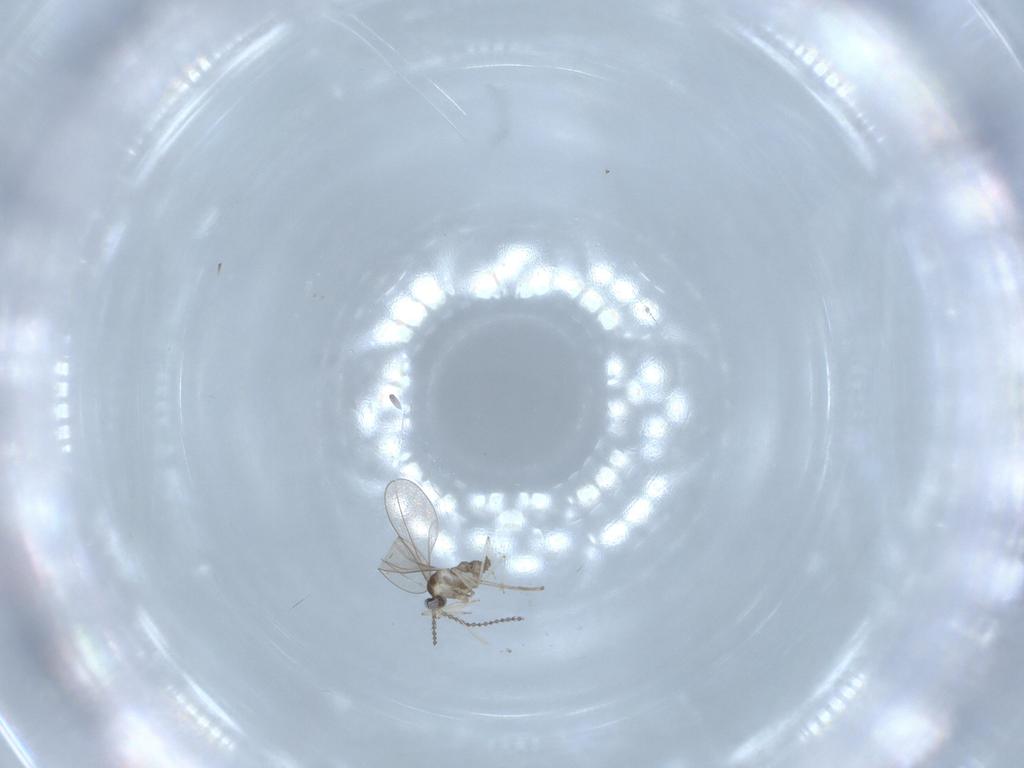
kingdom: Animalia
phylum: Arthropoda
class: Insecta
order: Diptera
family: Cecidomyiidae
